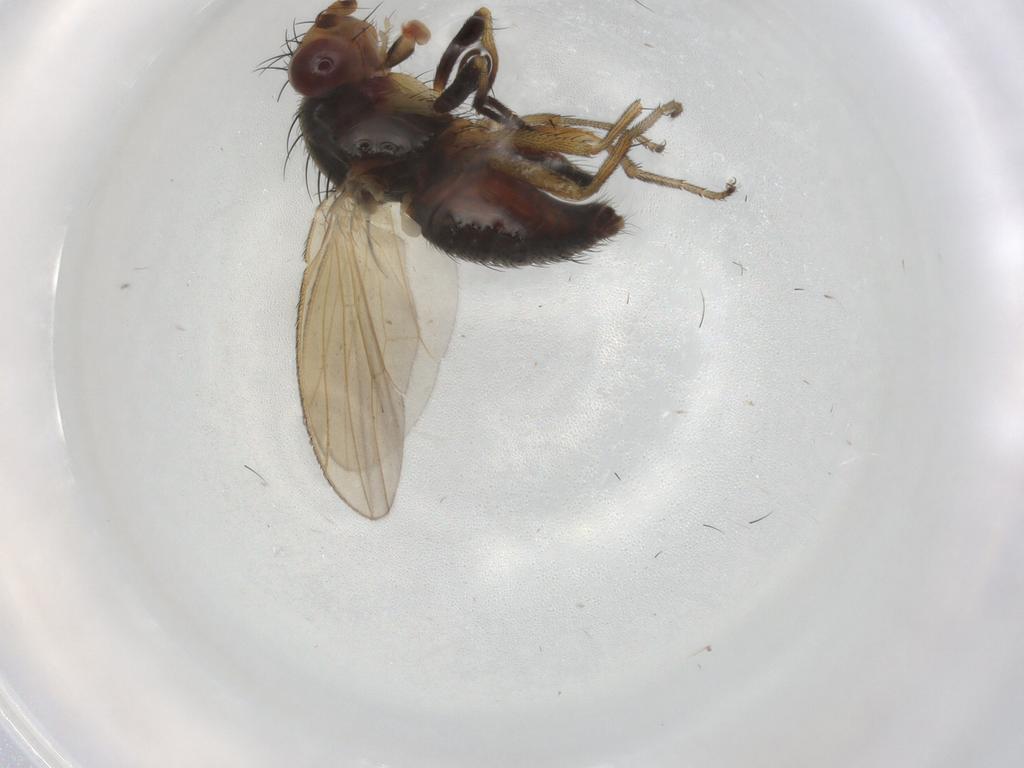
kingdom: Animalia
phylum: Arthropoda
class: Insecta
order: Diptera
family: Ulidiidae
